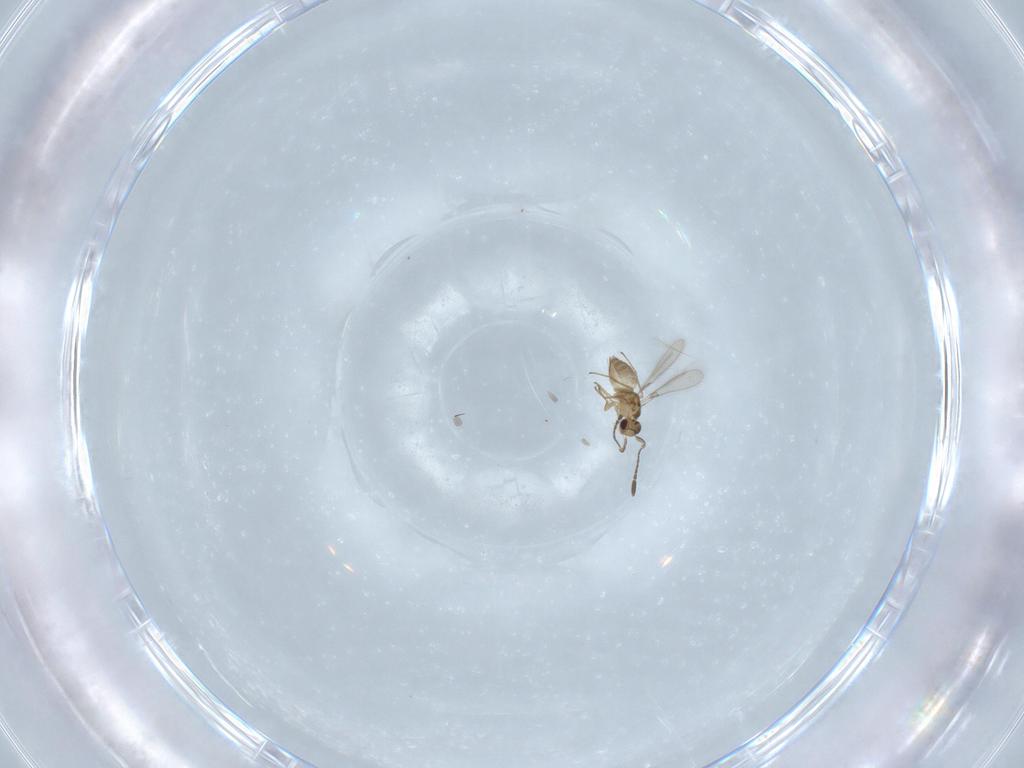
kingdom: Animalia
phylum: Arthropoda
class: Insecta
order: Hymenoptera
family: Mymaridae
